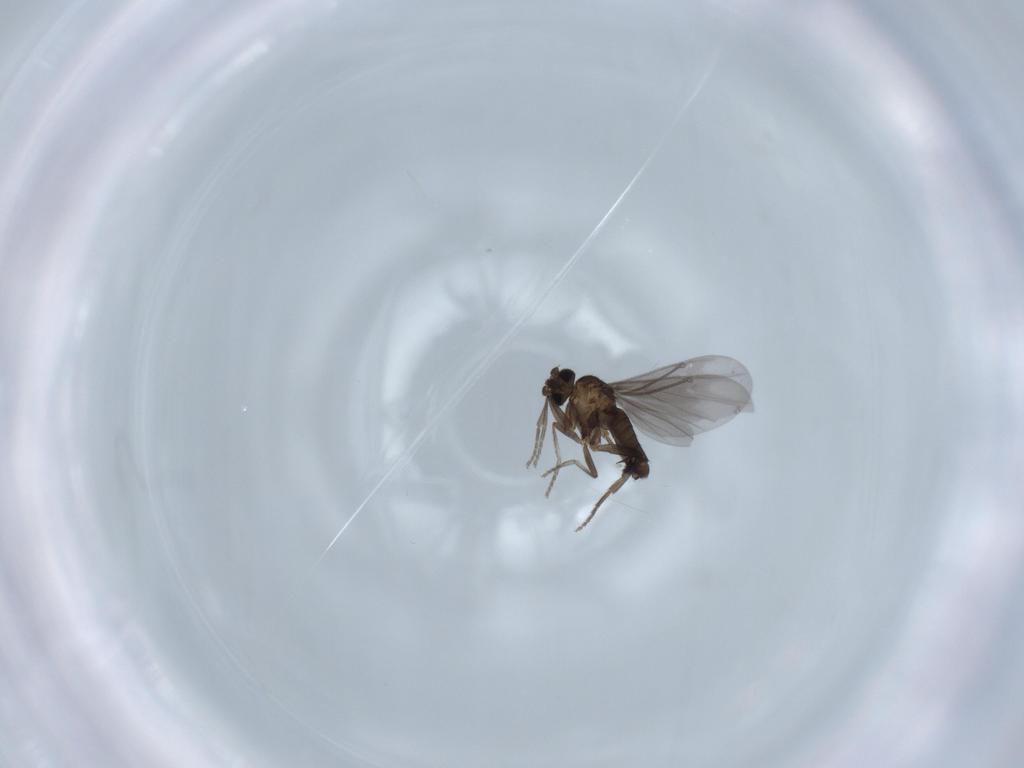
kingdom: Animalia
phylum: Arthropoda
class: Insecta
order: Diptera
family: Phoridae
